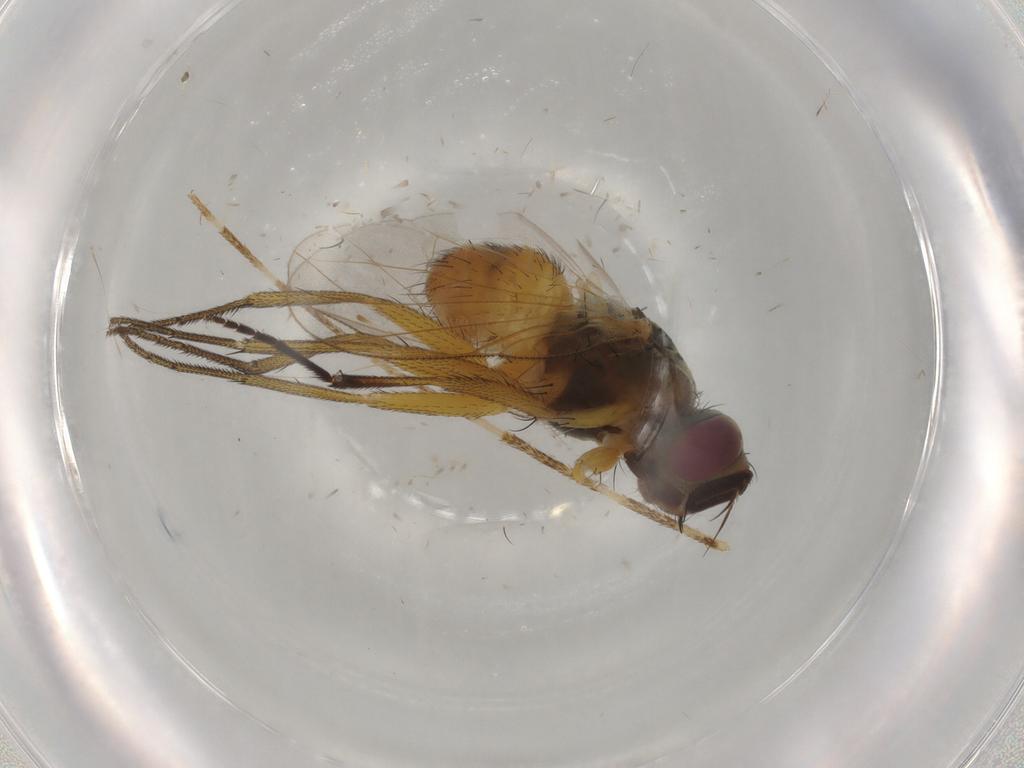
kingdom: Animalia
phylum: Arthropoda
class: Insecta
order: Diptera
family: Muscidae
